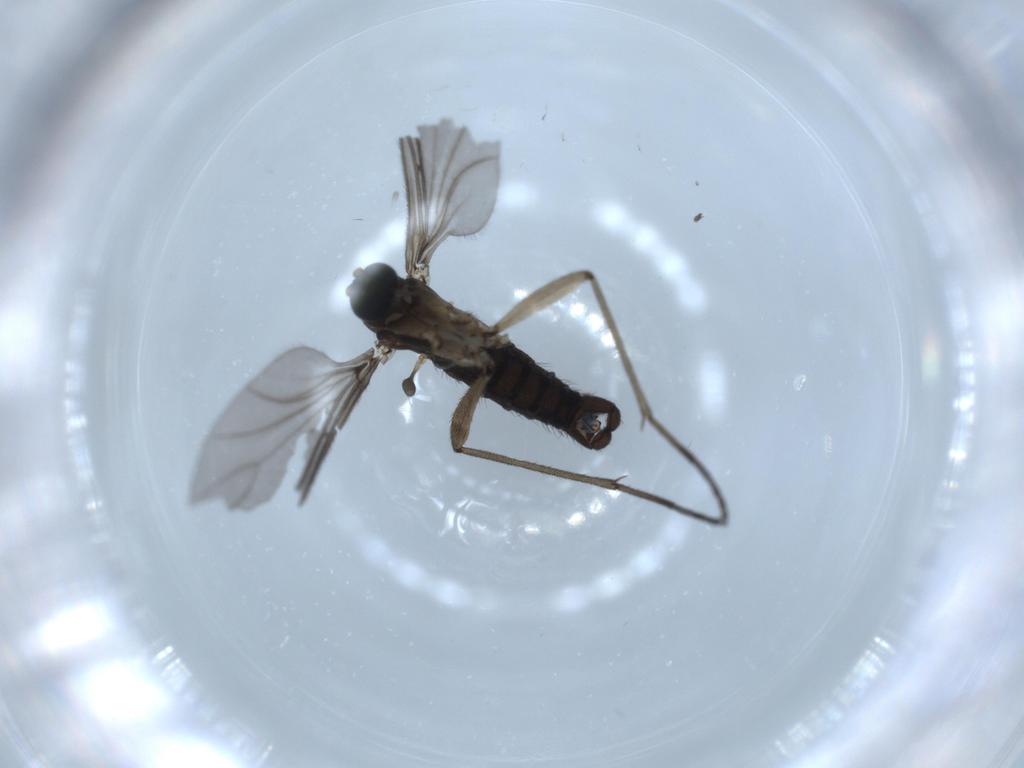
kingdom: Animalia
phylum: Arthropoda
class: Insecta
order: Diptera
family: Sciaridae
